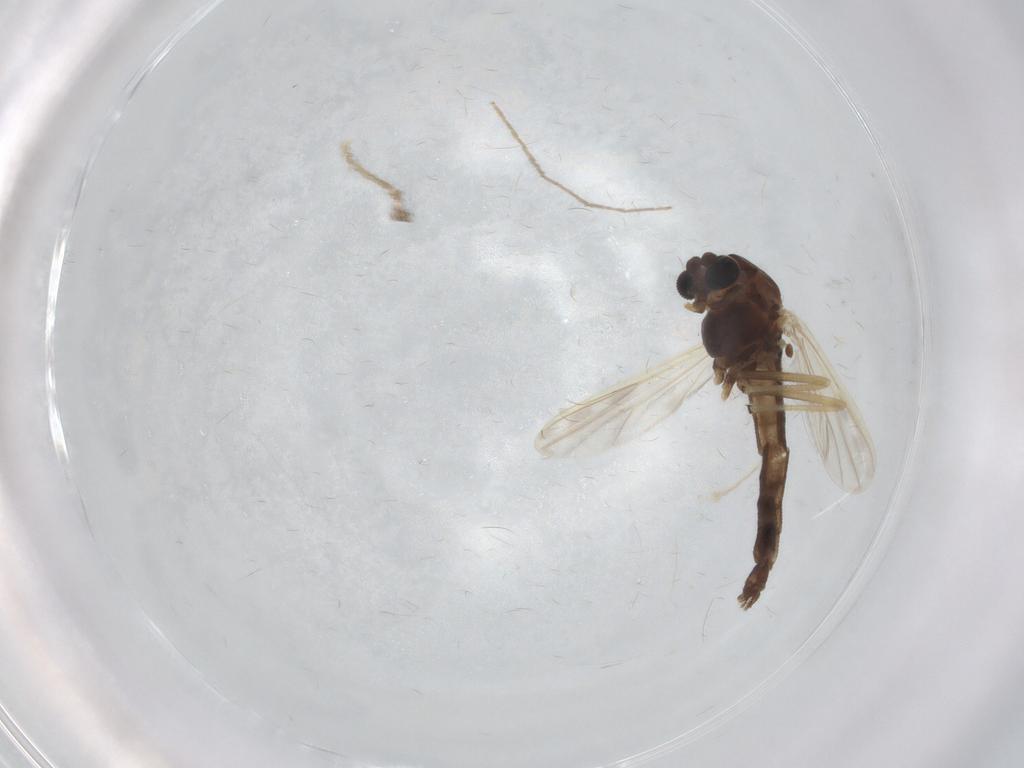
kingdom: Animalia
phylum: Arthropoda
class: Insecta
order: Diptera
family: Chironomidae
